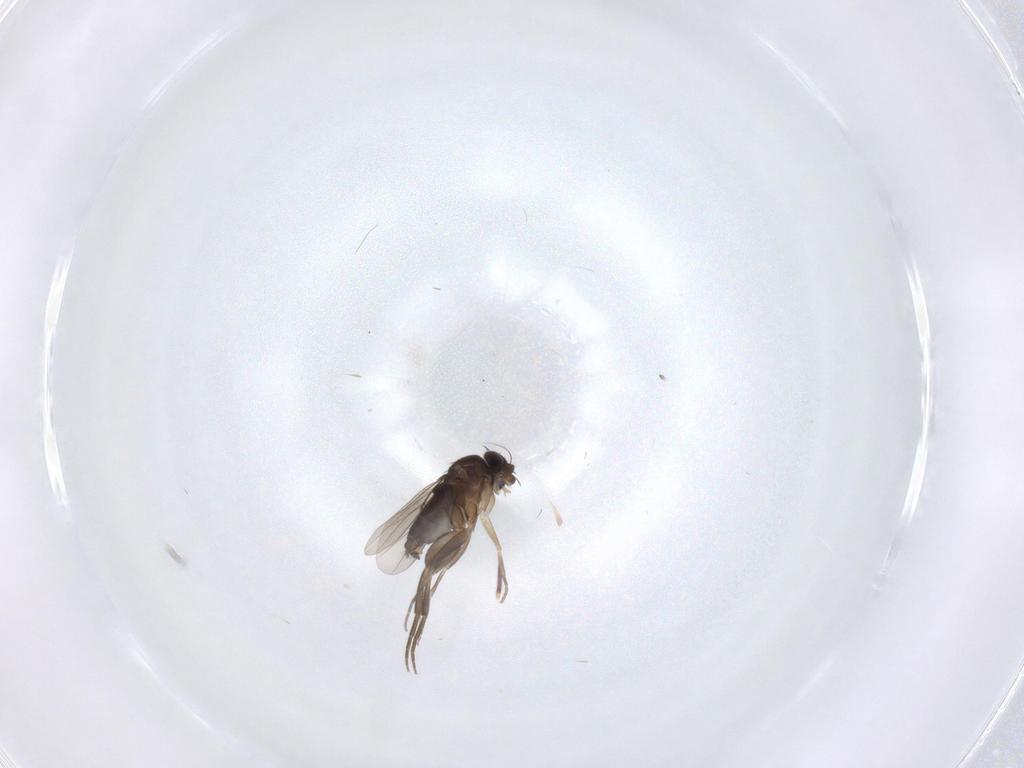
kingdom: Animalia
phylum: Arthropoda
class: Insecta
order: Diptera
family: Phoridae
